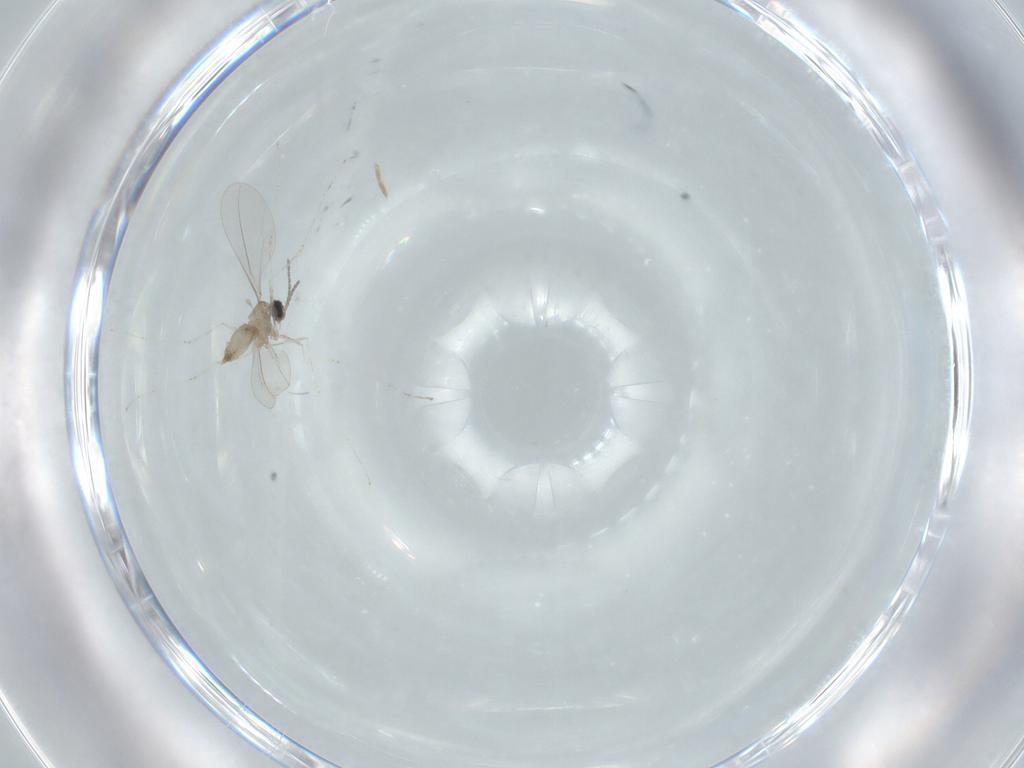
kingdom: Animalia
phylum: Arthropoda
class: Insecta
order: Diptera
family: Cecidomyiidae
